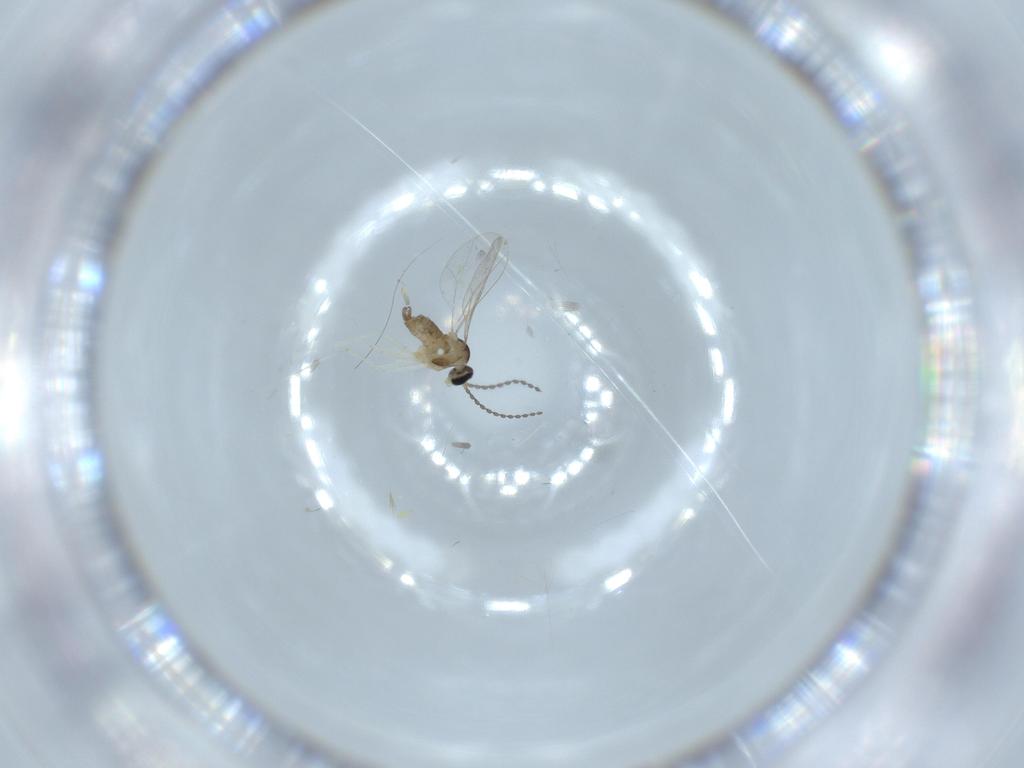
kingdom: Animalia
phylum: Arthropoda
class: Insecta
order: Diptera
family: Cecidomyiidae
